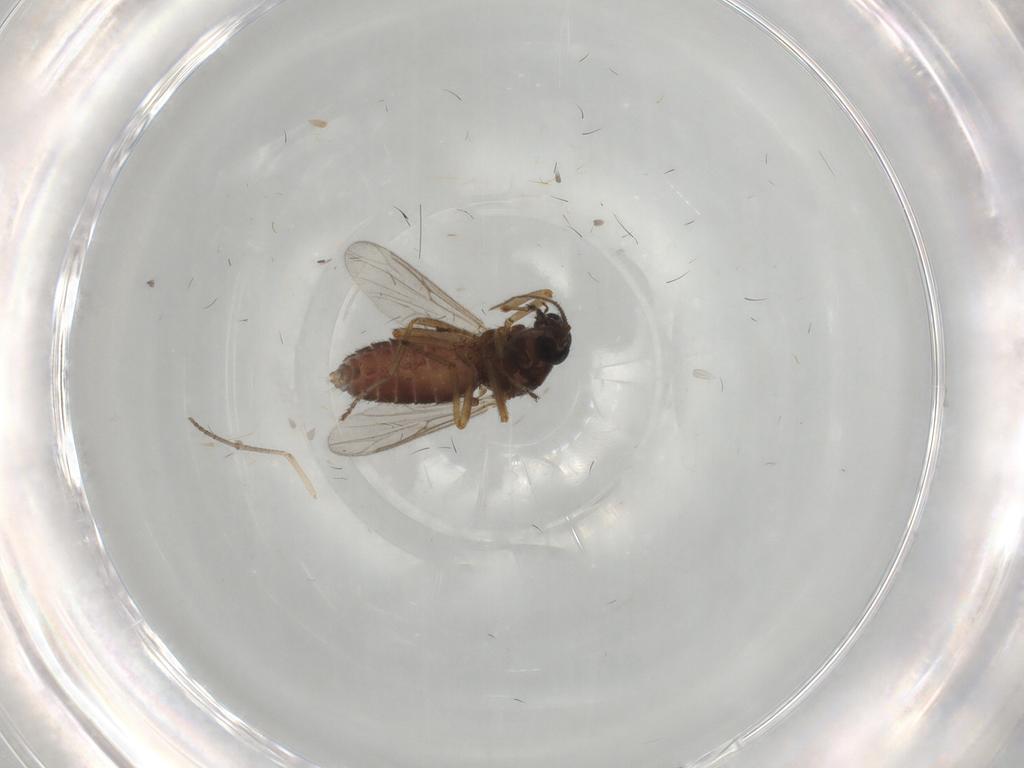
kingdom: Animalia
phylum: Arthropoda
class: Insecta
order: Diptera
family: Ceratopogonidae
